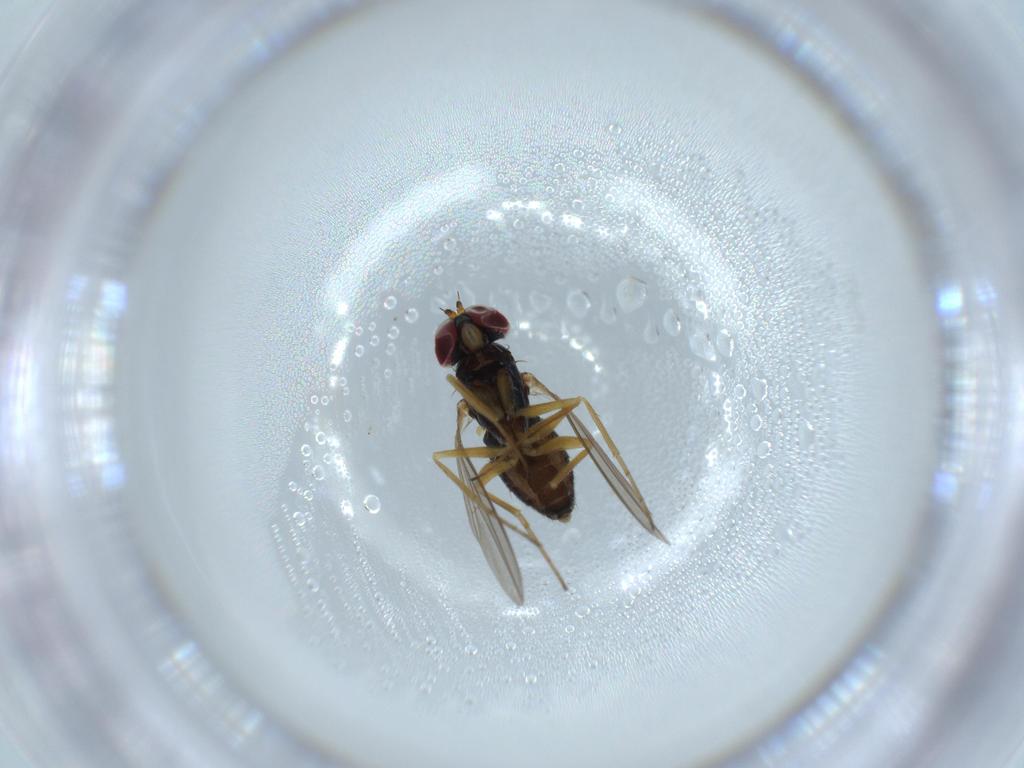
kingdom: Animalia
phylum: Arthropoda
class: Insecta
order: Diptera
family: Dolichopodidae
